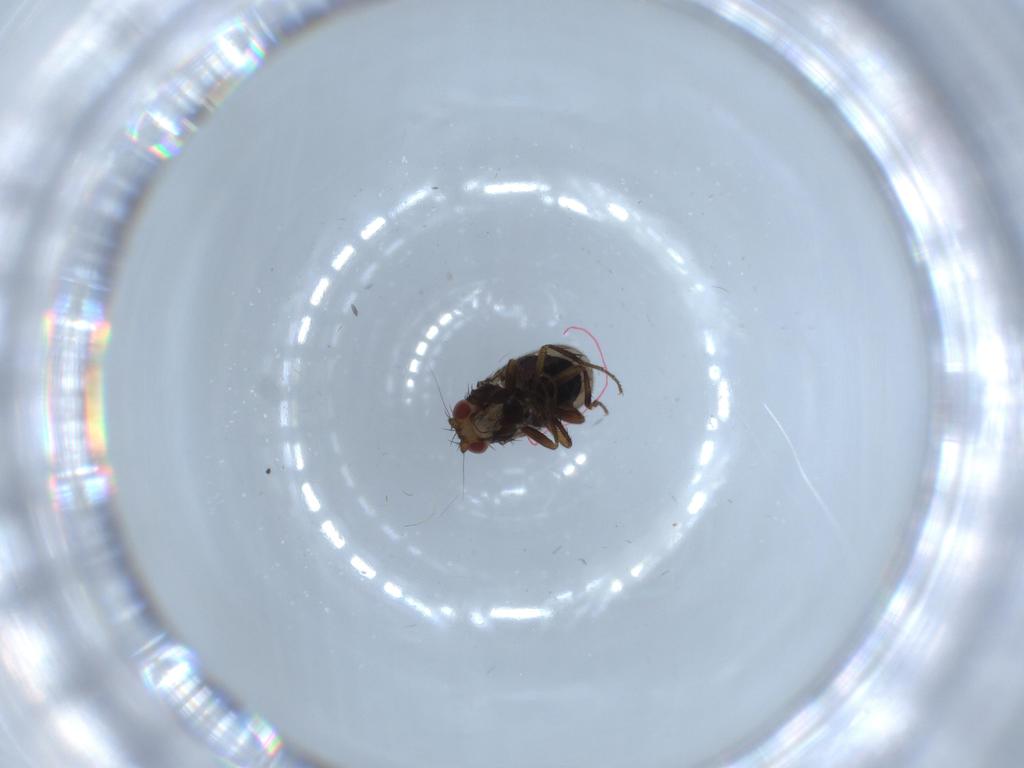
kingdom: Animalia
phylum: Arthropoda
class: Insecta
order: Diptera
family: Sphaeroceridae
